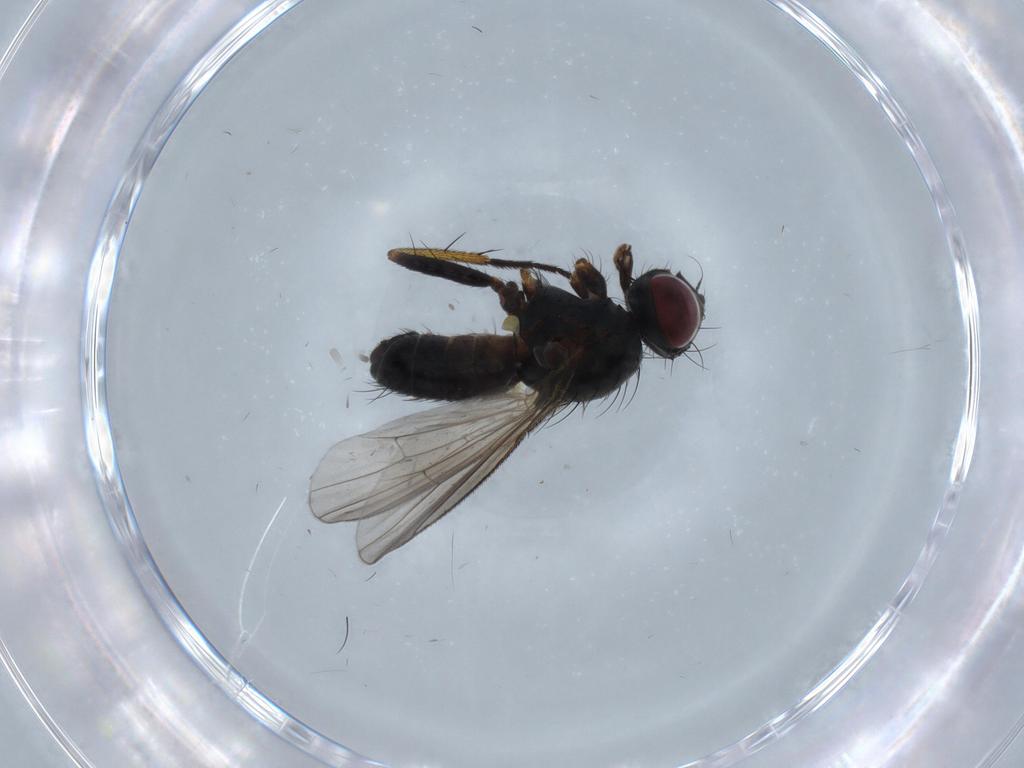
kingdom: Animalia
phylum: Arthropoda
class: Insecta
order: Diptera
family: Muscidae
